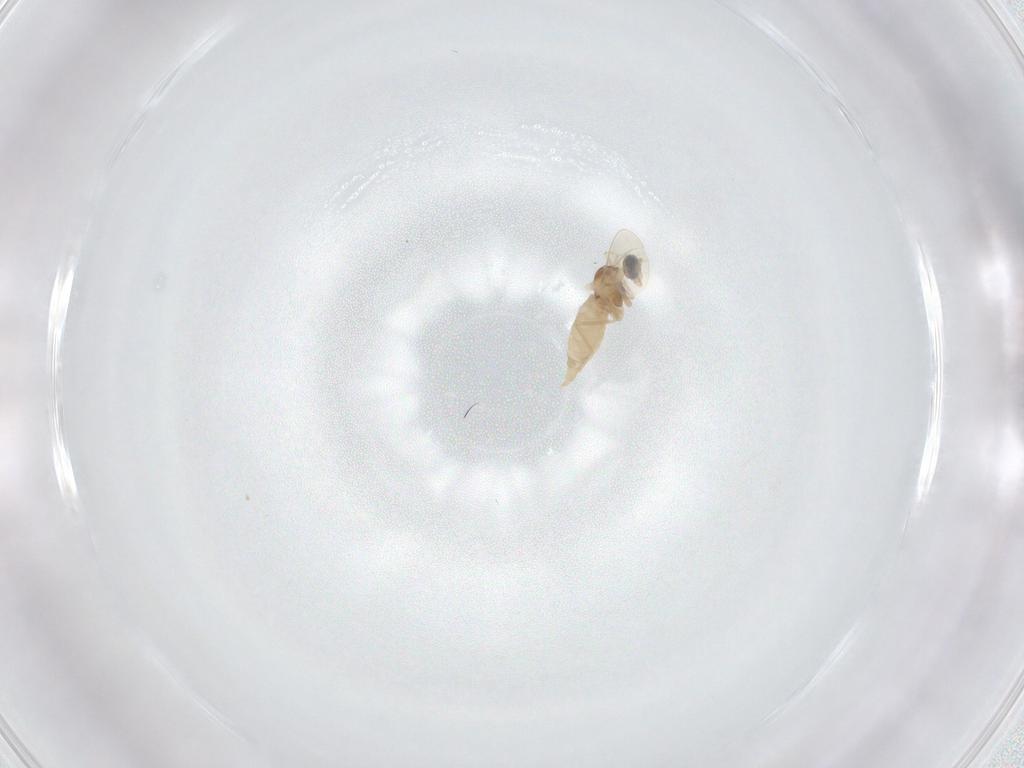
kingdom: Animalia
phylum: Arthropoda
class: Insecta
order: Diptera
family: Cecidomyiidae
